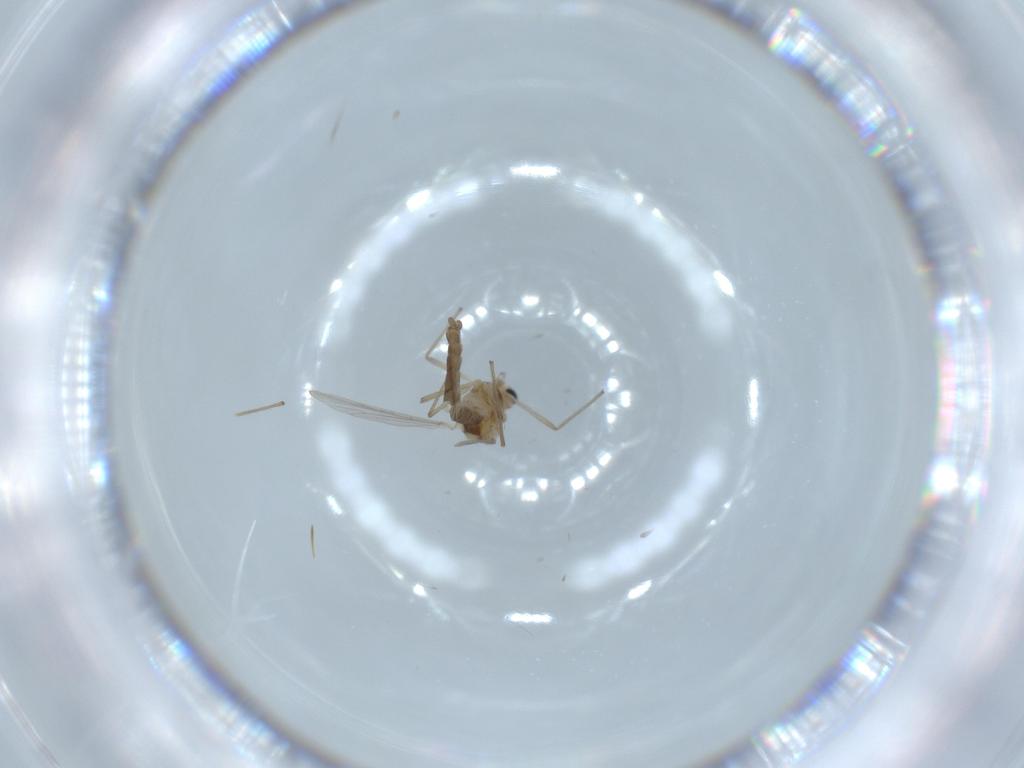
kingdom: Animalia
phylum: Arthropoda
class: Insecta
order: Diptera
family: Chironomidae
